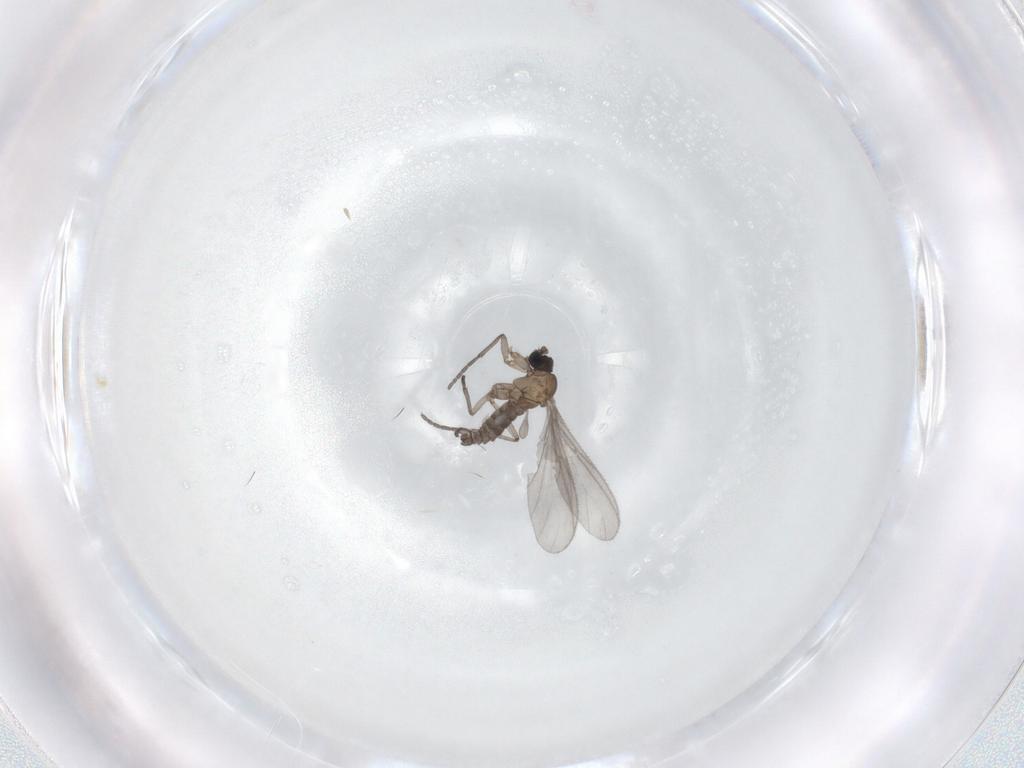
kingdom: Animalia
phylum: Arthropoda
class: Insecta
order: Diptera
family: Sciaridae
